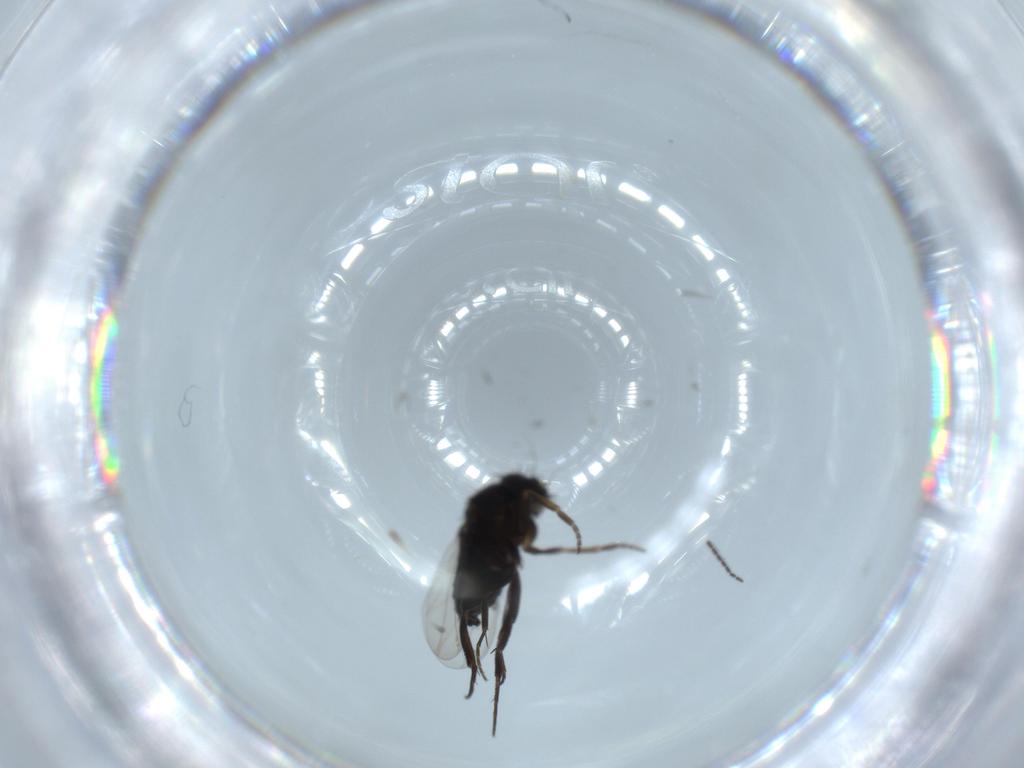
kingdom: Animalia
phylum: Arthropoda
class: Insecta
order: Diptera
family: Phoridae
